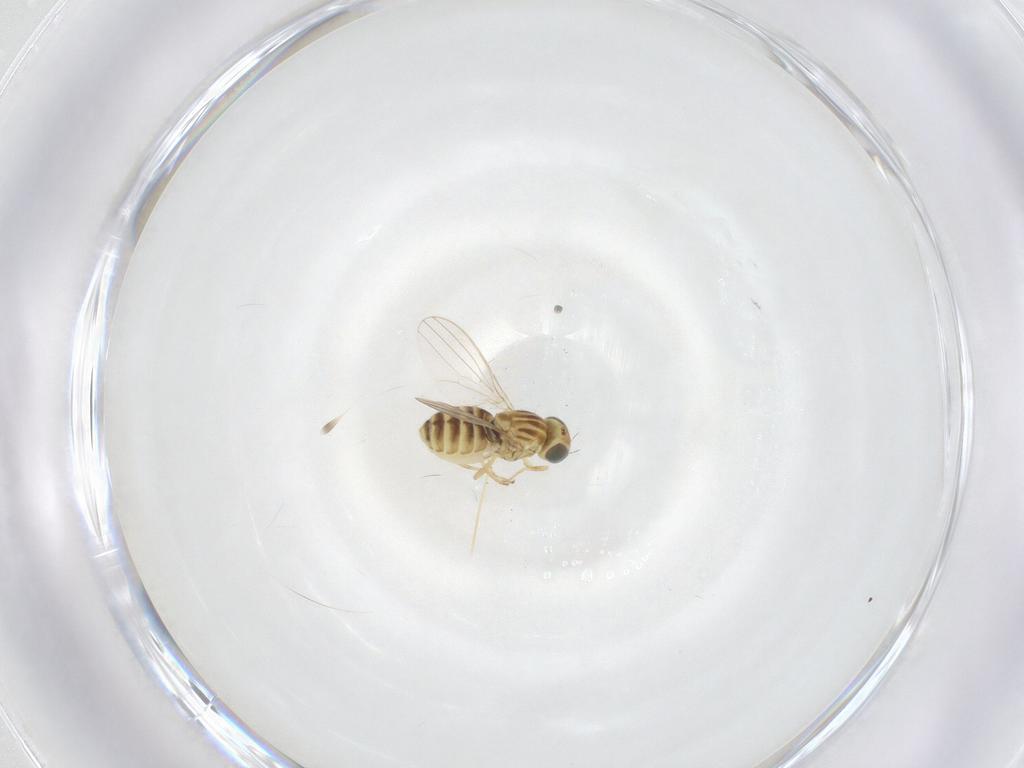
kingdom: Animalia
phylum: Arthropoda
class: Insecta
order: Diptera
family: Chyromyidae
